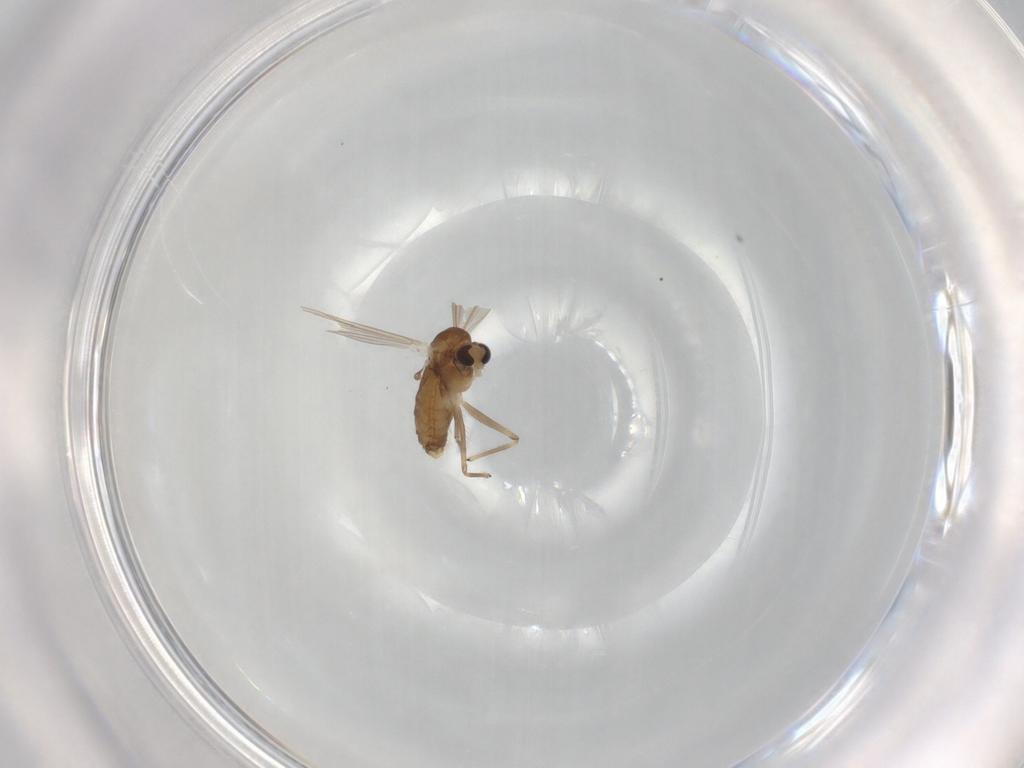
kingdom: Animalia
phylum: Arthropoda
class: Insecta
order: Diptera
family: Chironomidae
